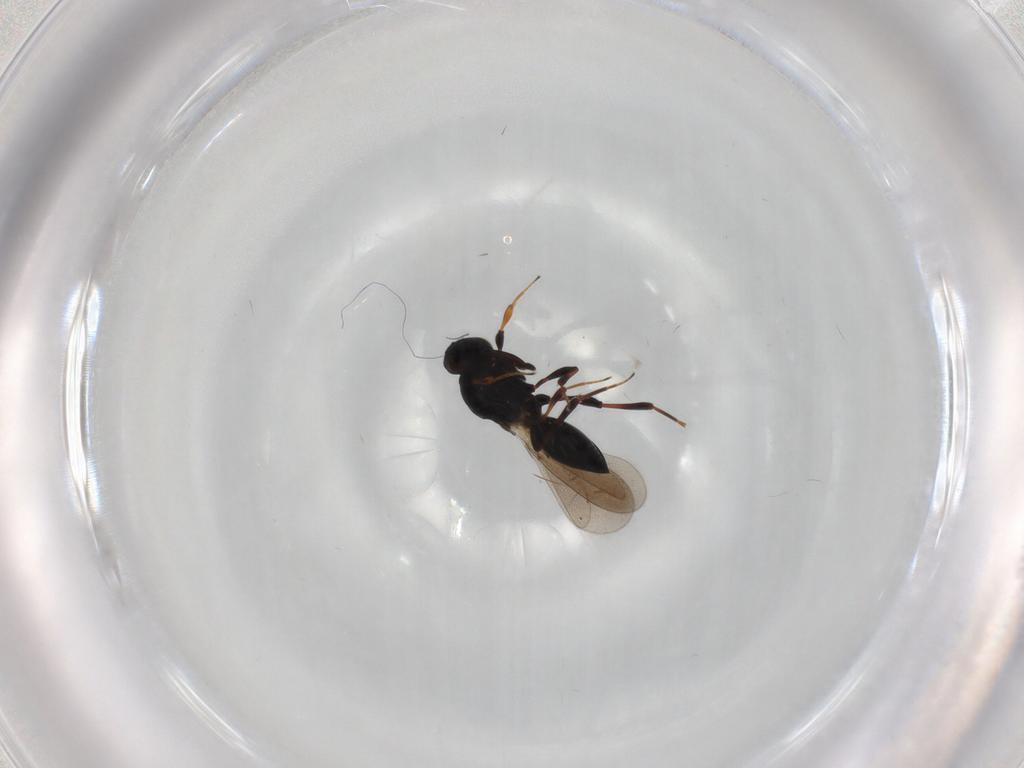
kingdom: Animalia
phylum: Arthropoda
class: Insecta
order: Hymenoptera
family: Platygastridae
